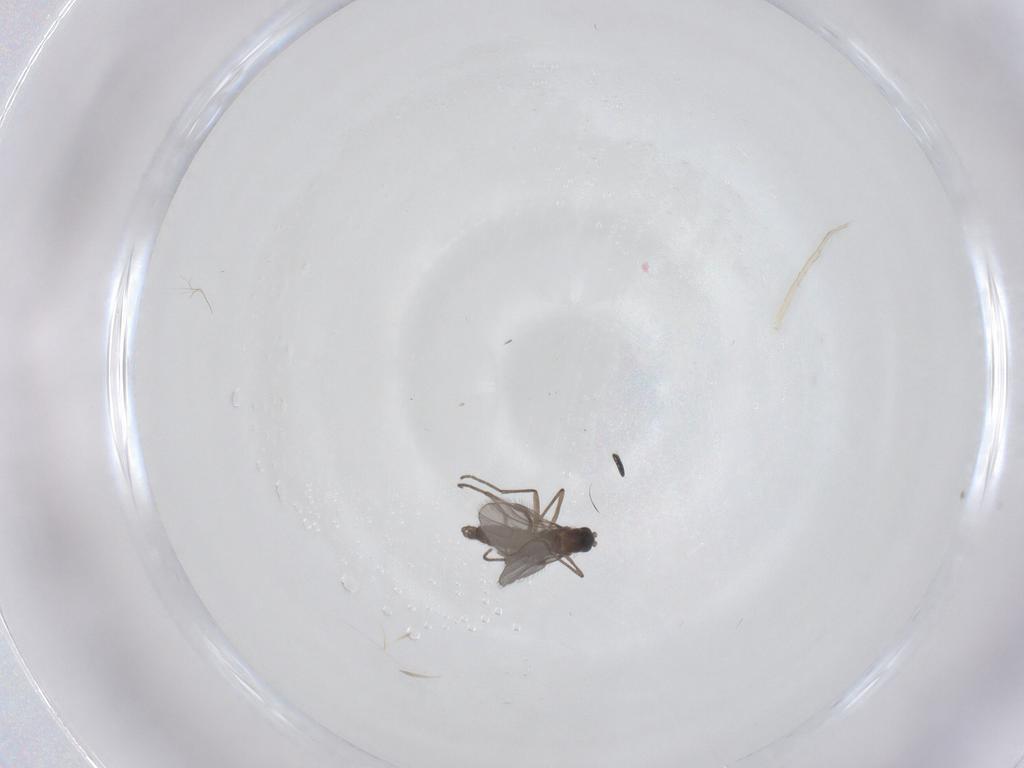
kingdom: Animalia
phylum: Arthropoda
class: Insecta
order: Diptera
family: Sciaridae
